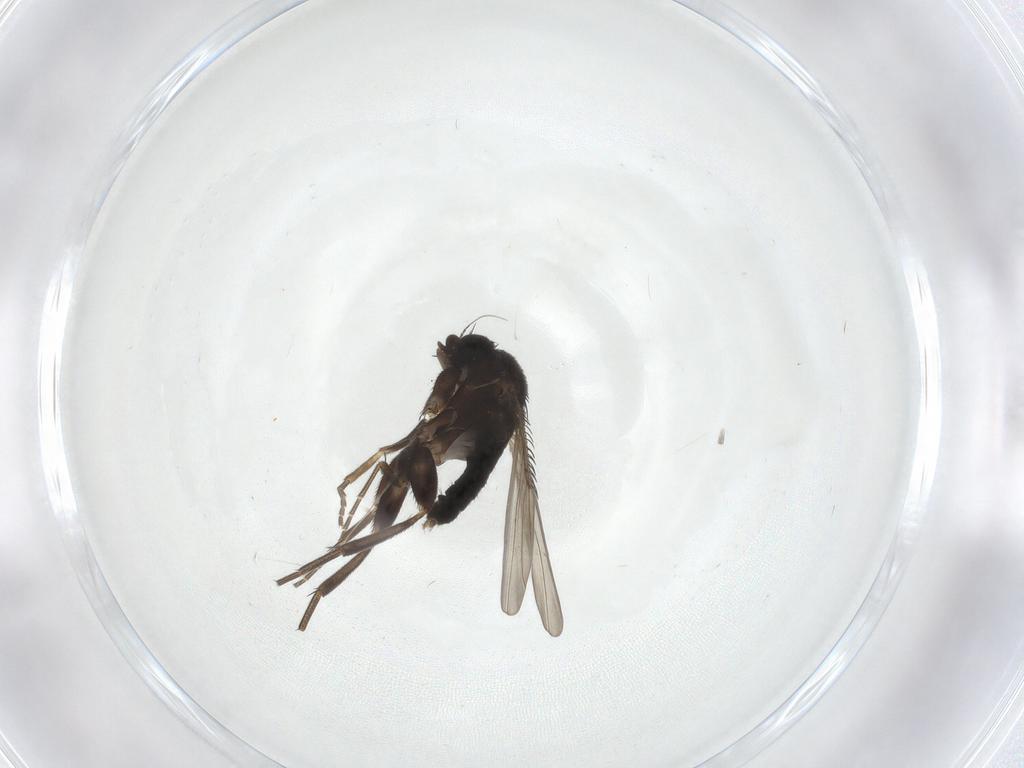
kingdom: Animalia
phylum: Arthropoda
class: Insecta
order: Diptera
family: Phoridae
